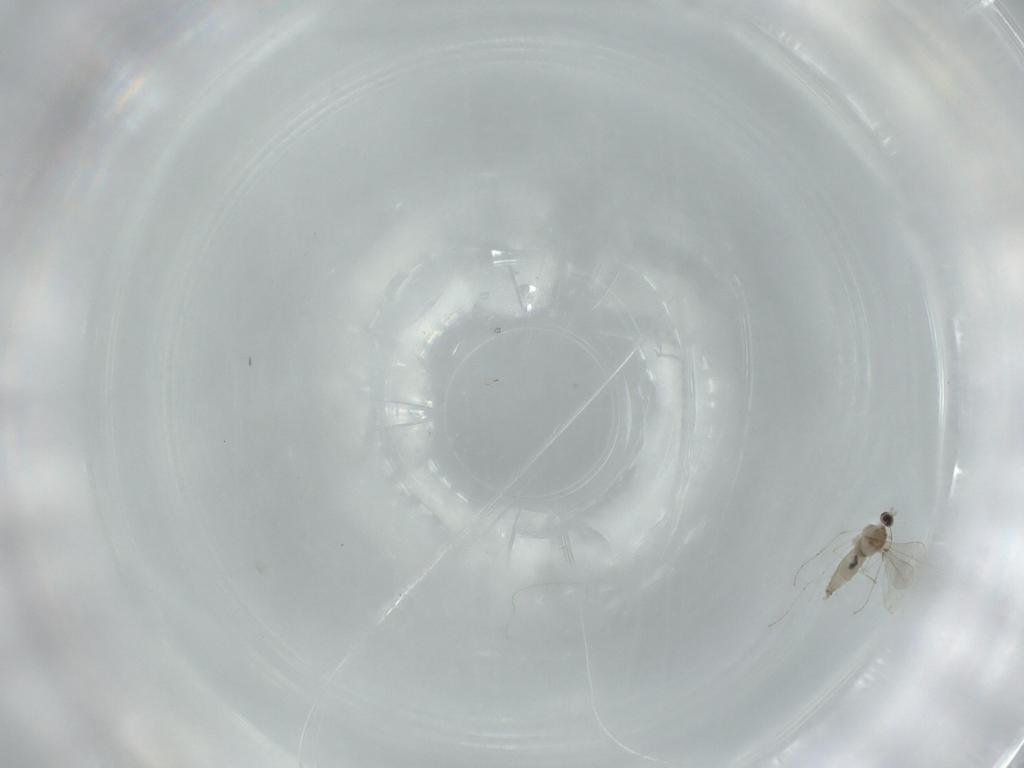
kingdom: Animalia
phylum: Arthropoda
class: Insecta
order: Diptera
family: Cecidomyiidae
